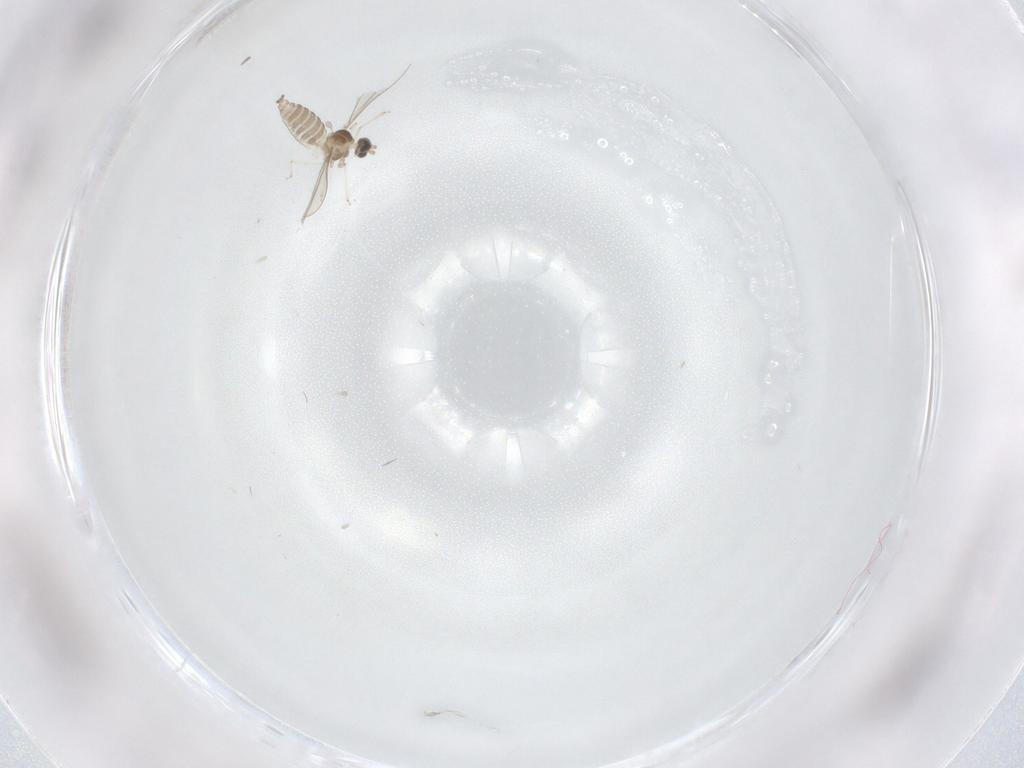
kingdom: Animalia
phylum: Arthropoda
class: Insecta
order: Diptera
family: Cecidomyiidae
